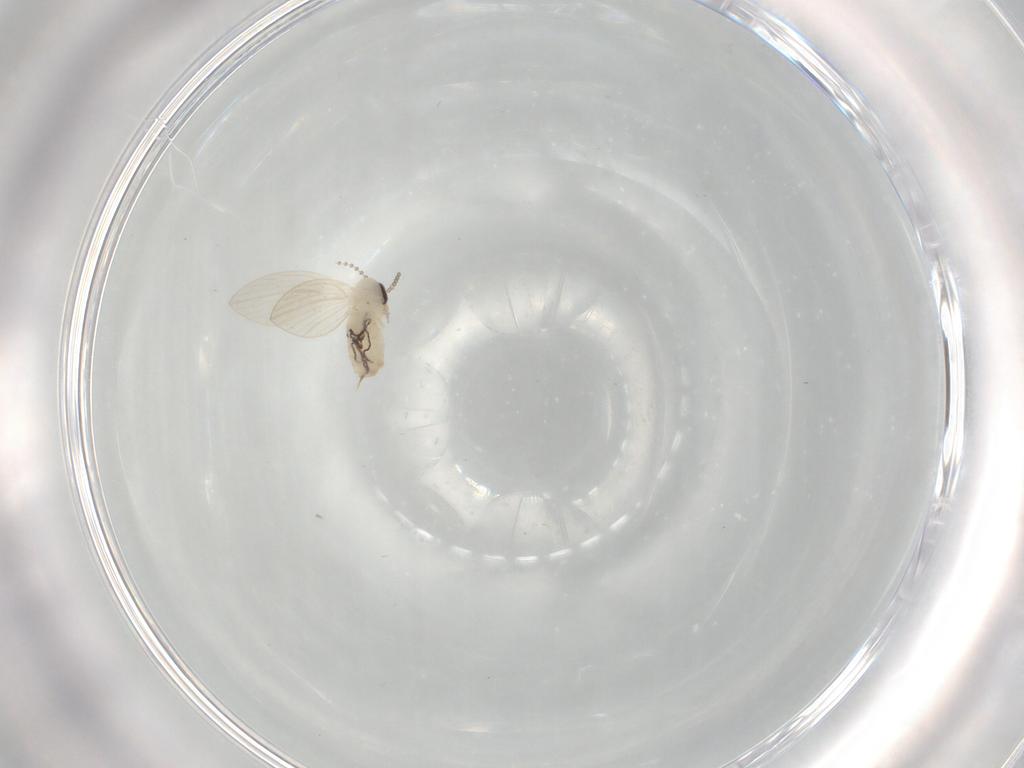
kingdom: Animalia
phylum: Arthropoda
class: Insecta
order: Diptera
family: Psychodidae
